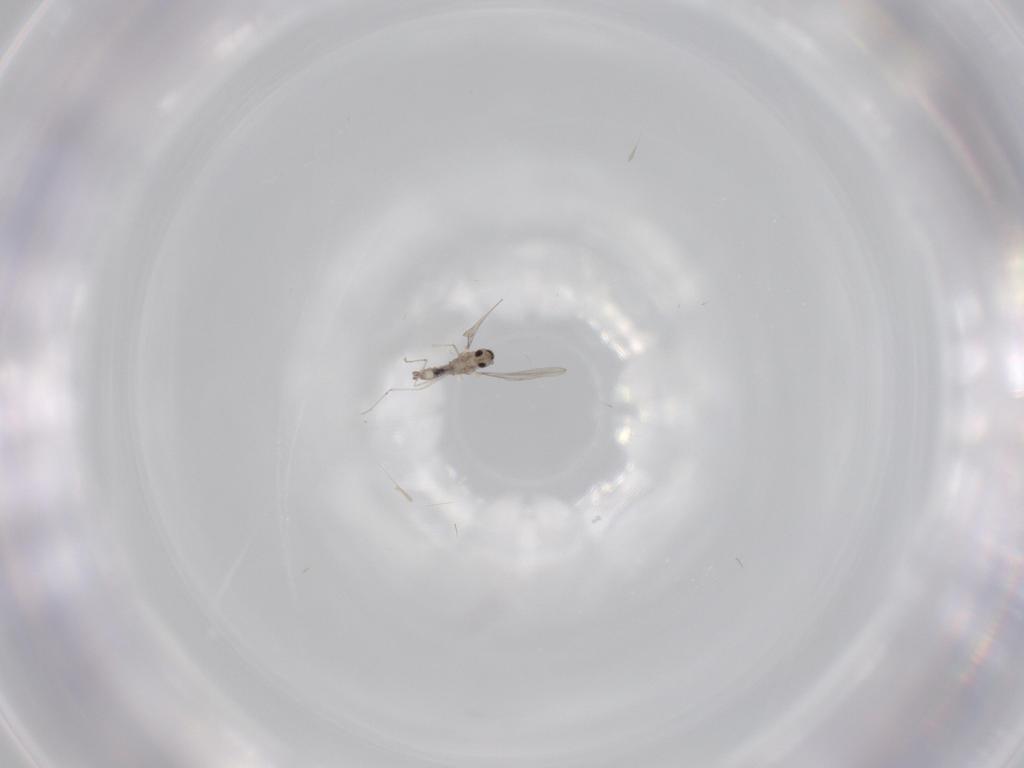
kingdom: Animalia
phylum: Arthropoda
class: Insecta
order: Diptera
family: Cecidomyiidae
